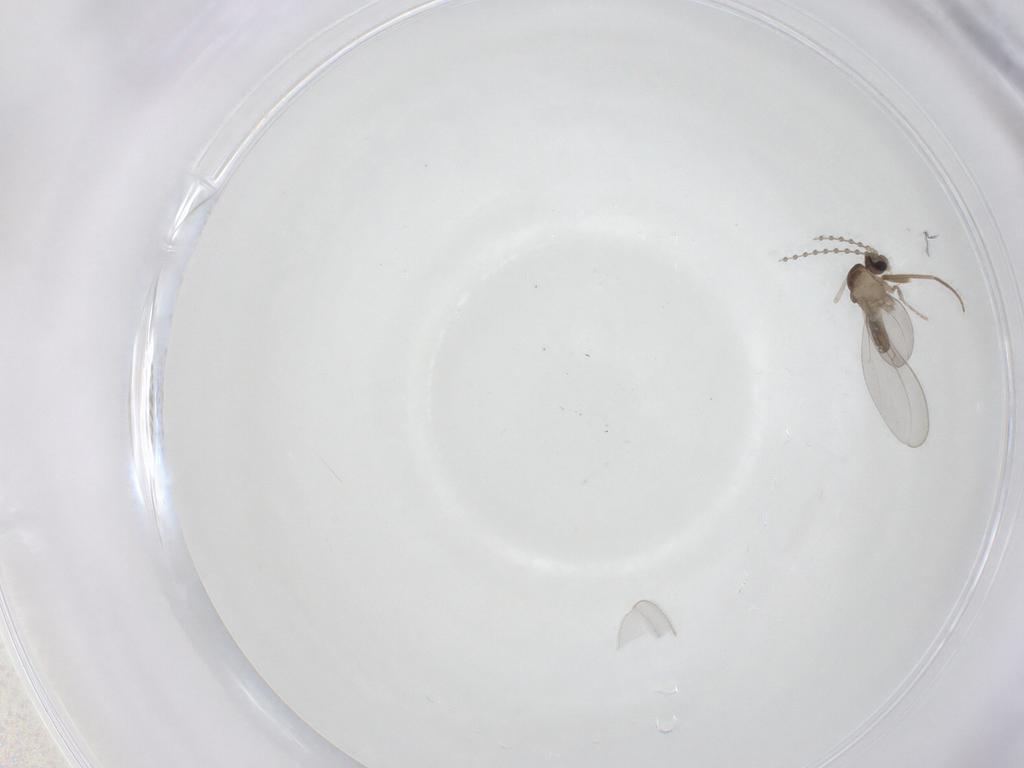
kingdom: Animalia
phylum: Arthropoda
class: Insecta
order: Diptera
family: Cecidomyiidae
